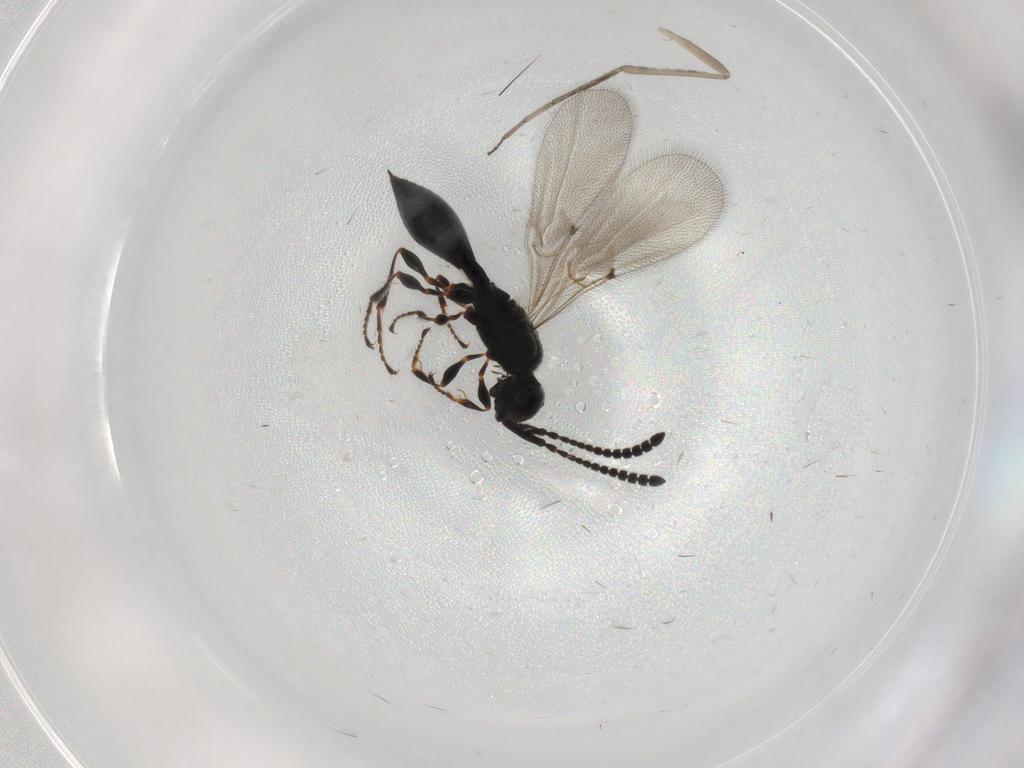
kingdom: Animalia
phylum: Arthropoda
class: Insecta
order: Hymenoptera
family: Diapriidae
